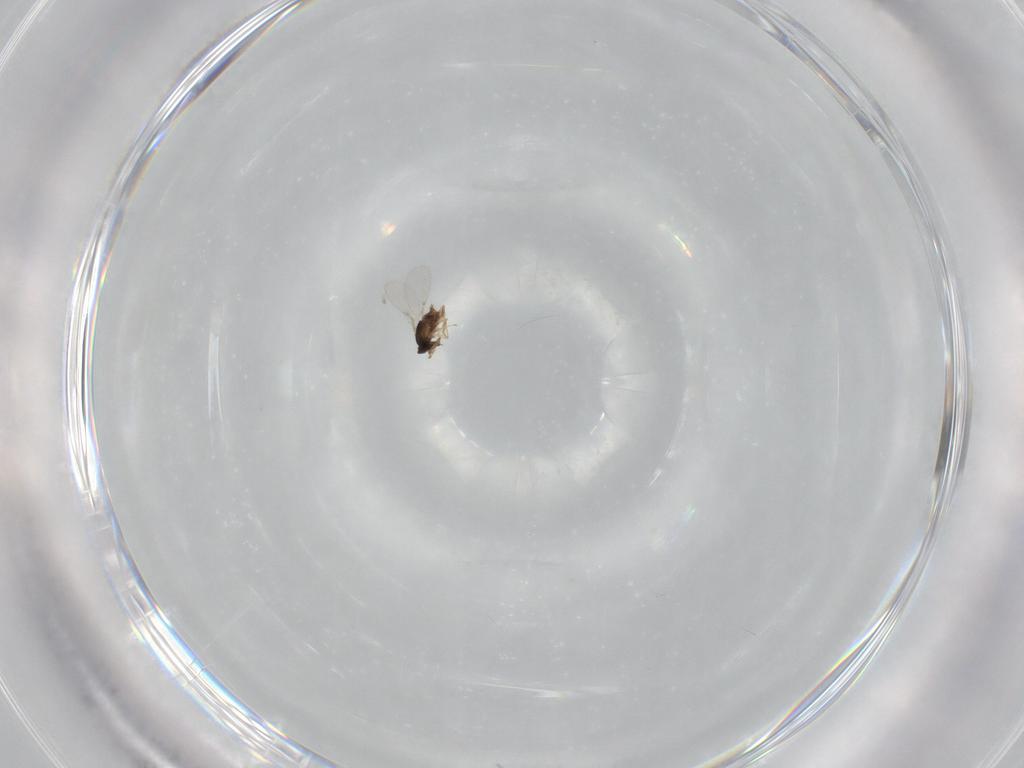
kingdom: Animalia
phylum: Arthropoda
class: Insecta
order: Hymenoptera
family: Encyrtidae
